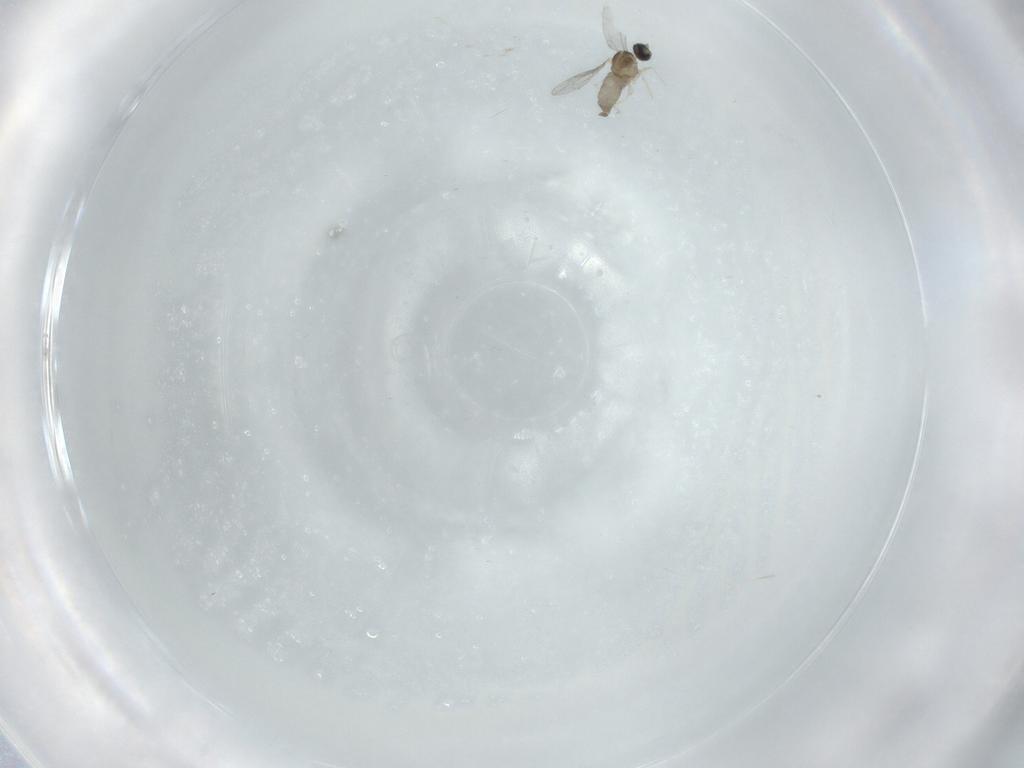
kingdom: Animalia
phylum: Arthropoda
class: Insecta
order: Diptera
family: Cecidomyiidae
